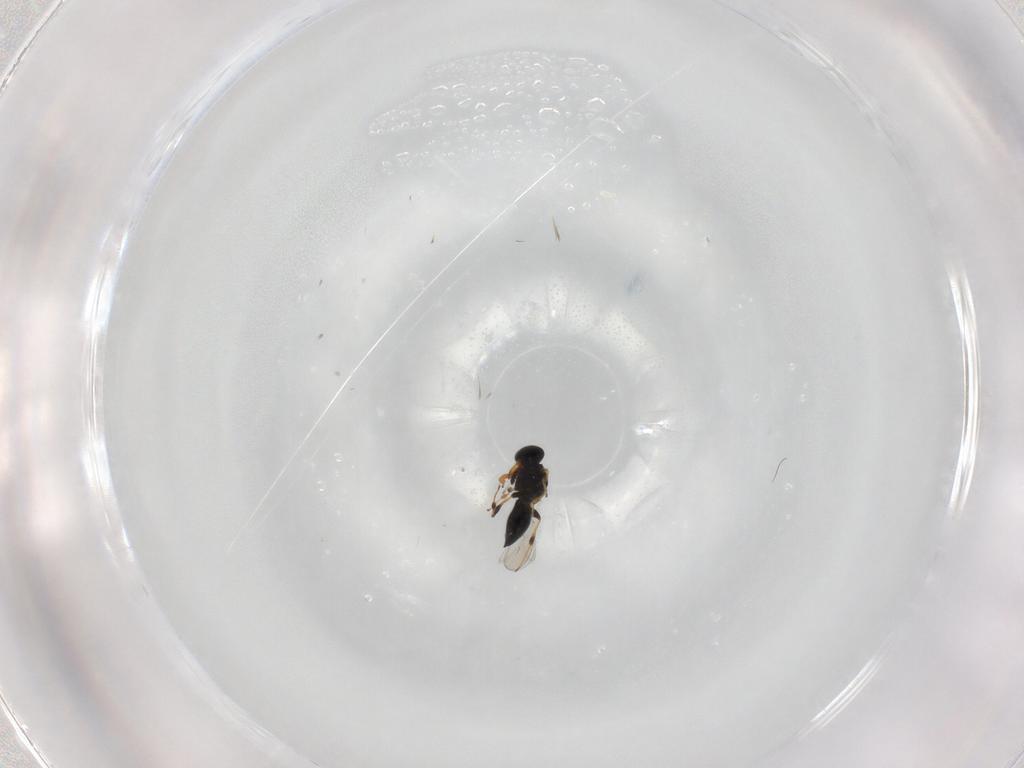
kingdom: Animalia
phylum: Arthropoda
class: Insecta
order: Hymenoptera
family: Platygastridae
